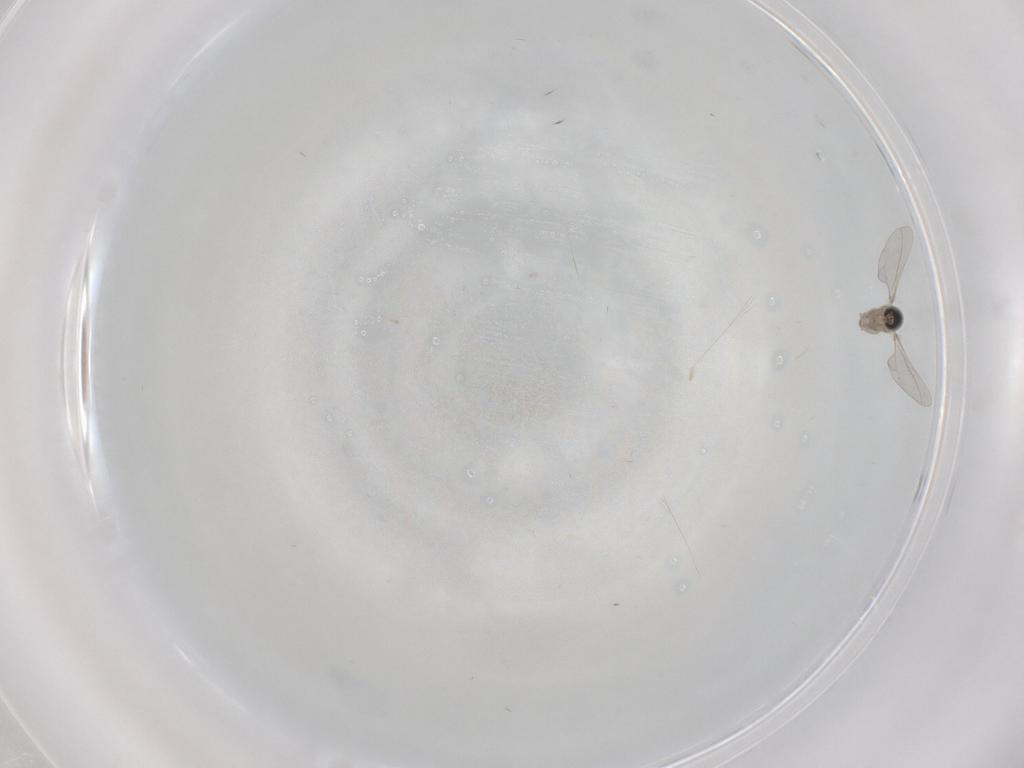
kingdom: Animalia
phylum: Arthropoda
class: Insecta
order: Diptera
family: Cecidomyiidae
